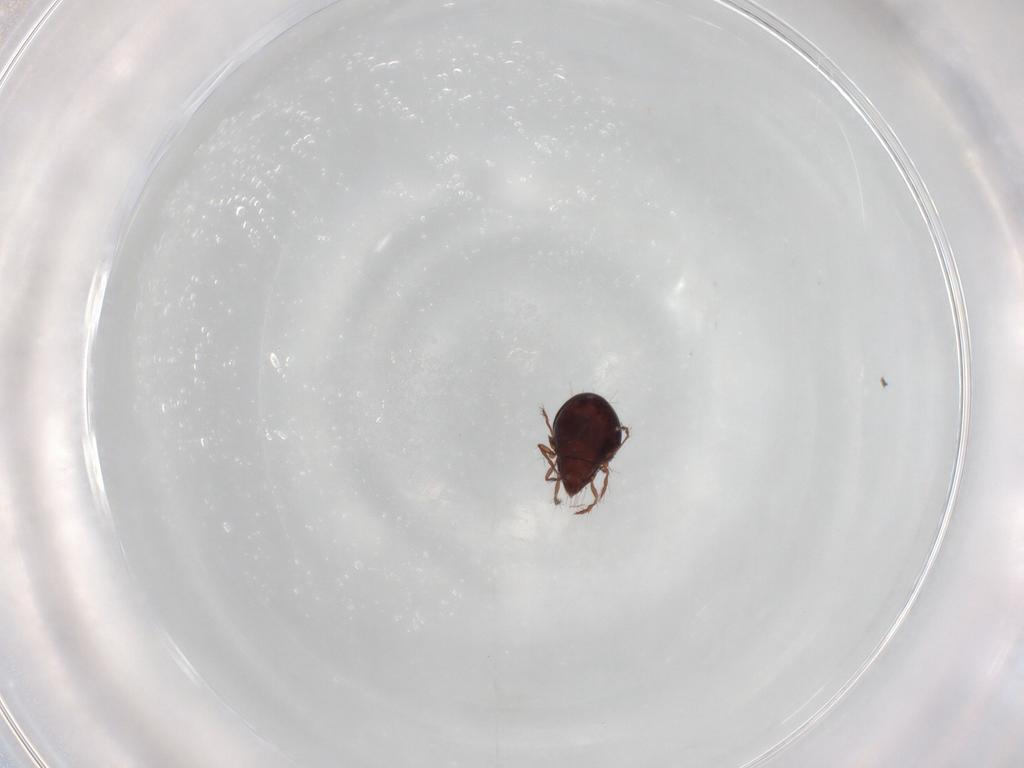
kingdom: Animalia
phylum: Arthropoda
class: Arachnida
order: Sarcoptiformes
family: Ceratoppiidae
